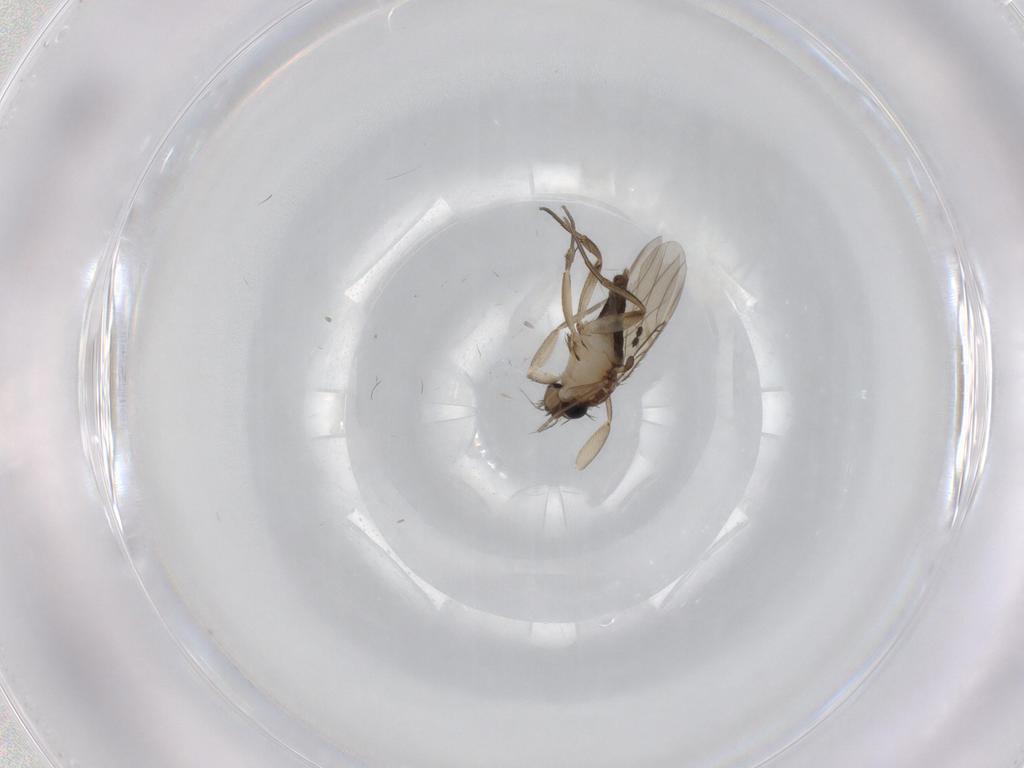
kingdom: Animalia
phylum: Arthropoda
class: Insecta
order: Diptera
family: Phoridae
